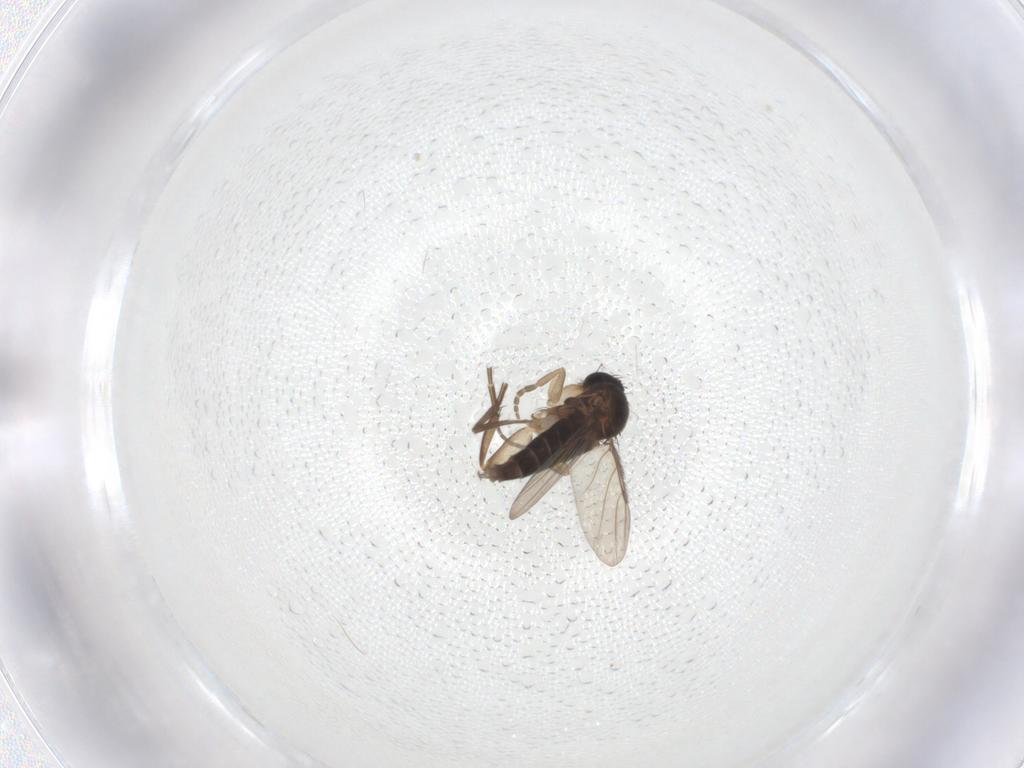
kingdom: Animalia
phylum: Arthropoda
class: Insecta
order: Diptera
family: Phoridae
